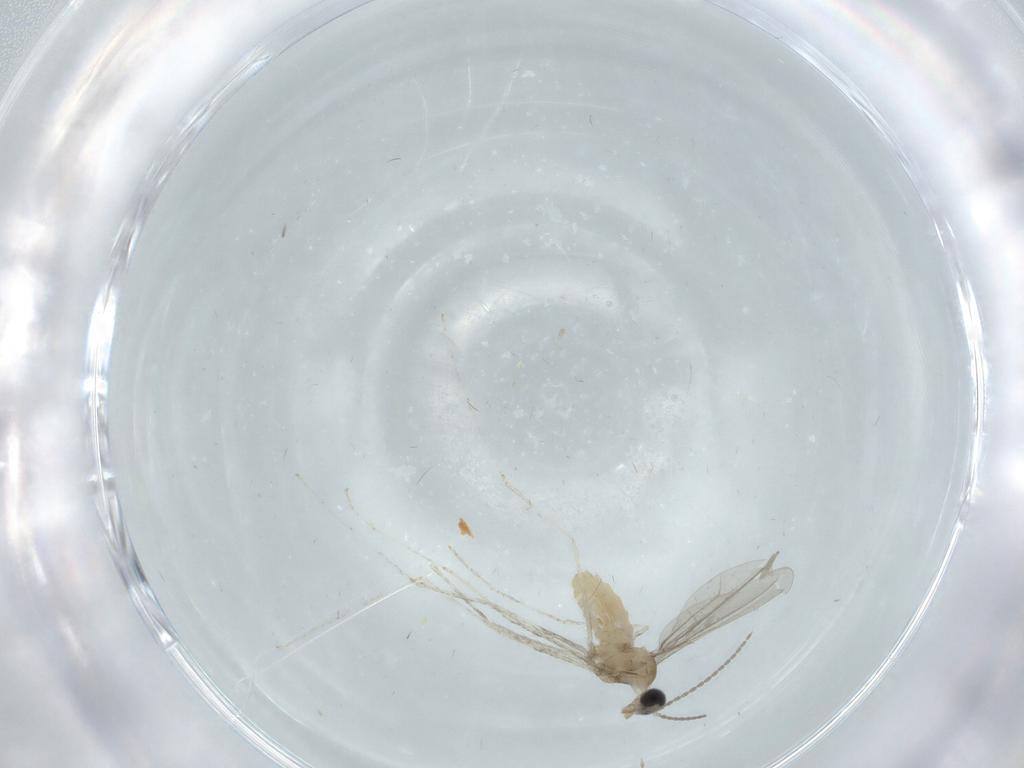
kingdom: Animalia
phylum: Arthropoda
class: Insecta
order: Diptera
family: Cecidomyiidae
